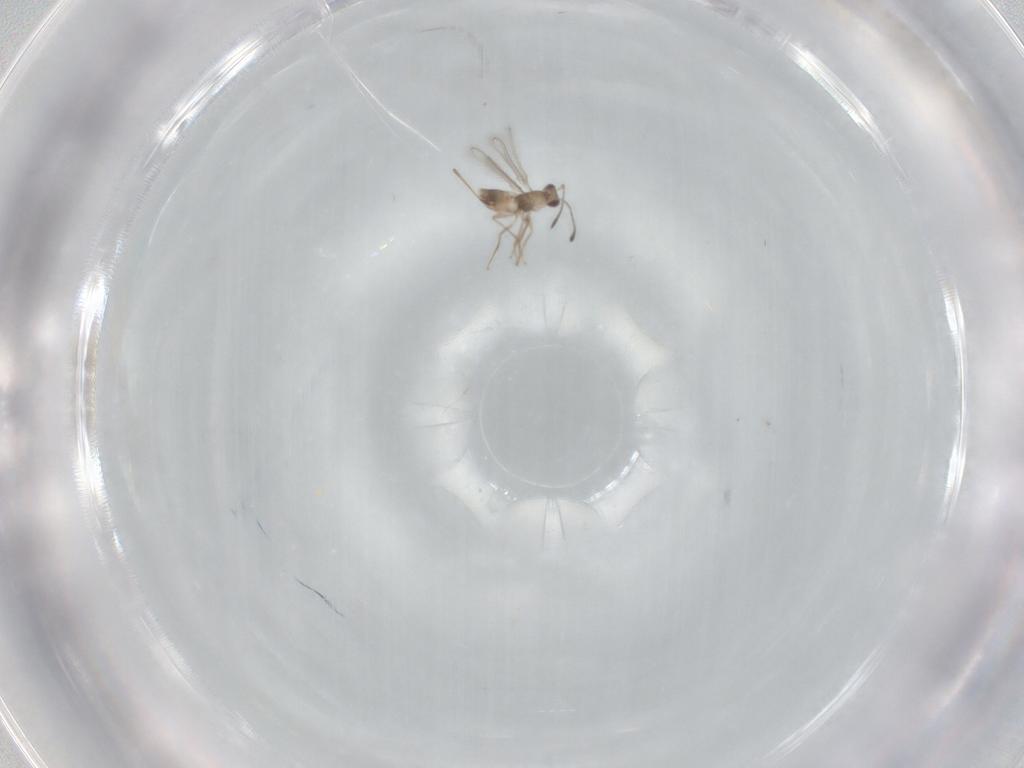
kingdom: Animalia
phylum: Arthropoda
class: Insecta
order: Hymenoptera
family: Mymaridae
